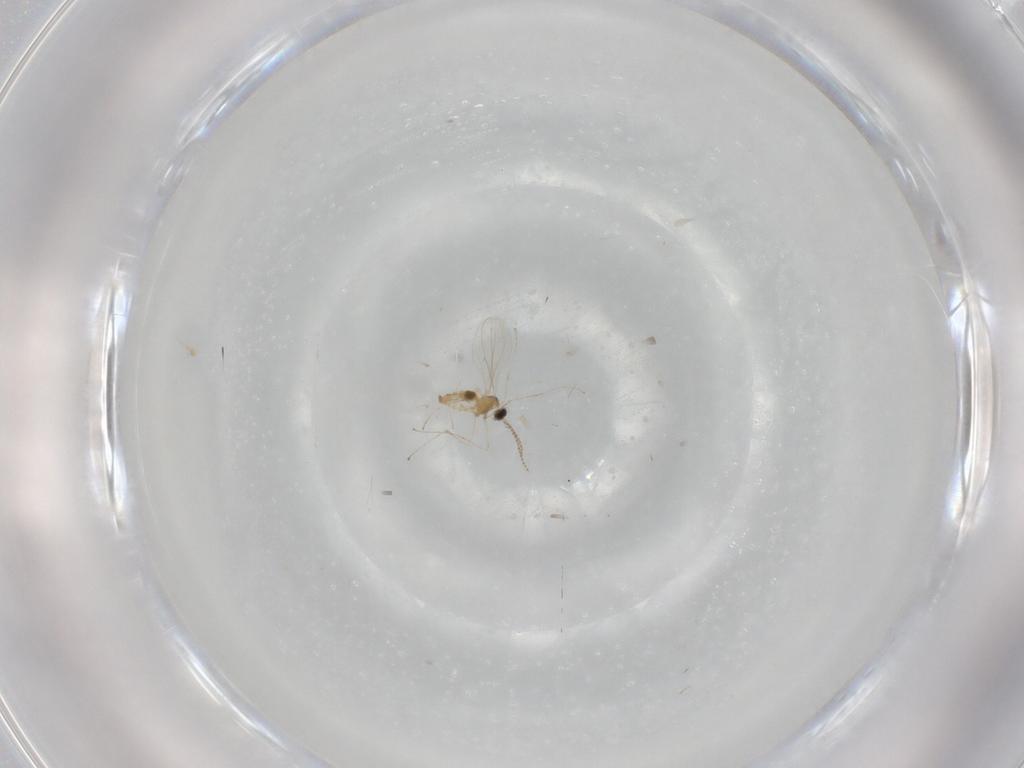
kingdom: Animalia
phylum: Arthropoda
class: Insecta
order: Diptera
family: Cecidomyiidae
